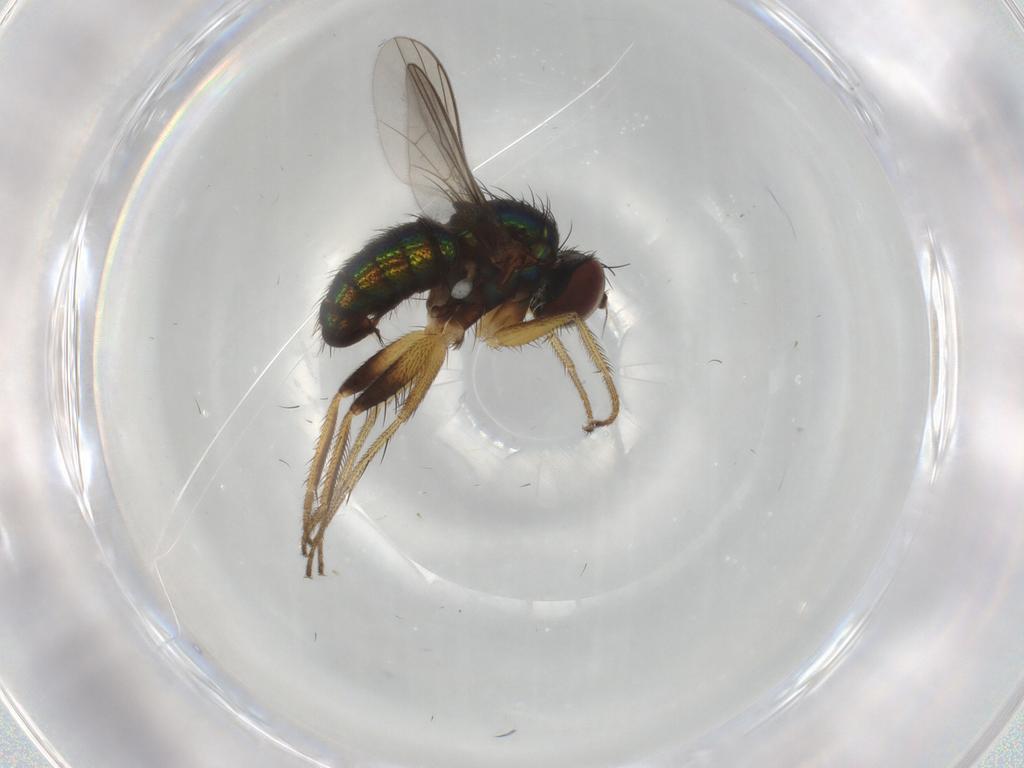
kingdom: Animalia
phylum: Arthropoda
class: Insecta
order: Diptera
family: Dolichopodidae
